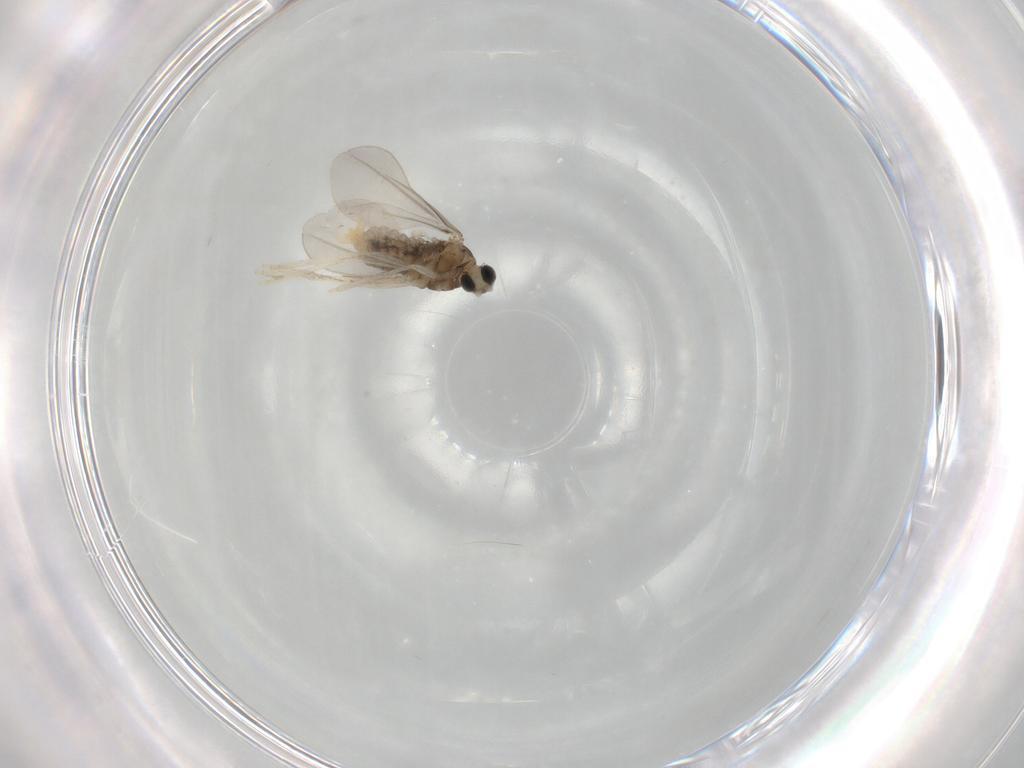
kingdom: Animalia
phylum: Arthropoda
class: Insecta
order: Diptera
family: Cecidomyiidae
